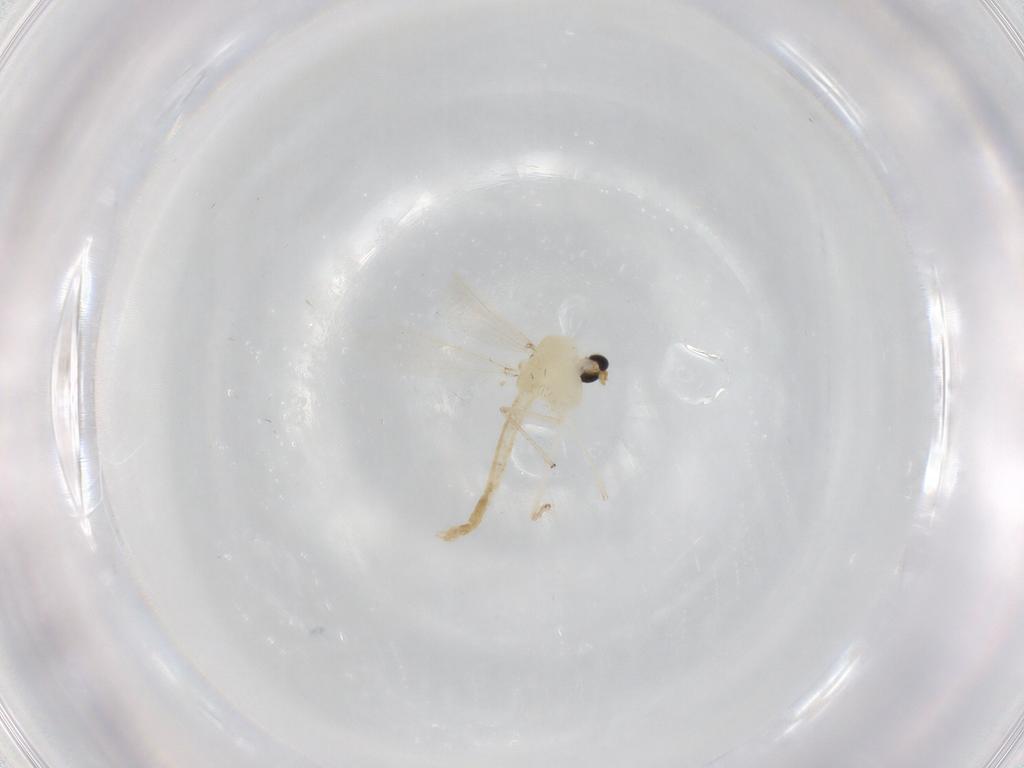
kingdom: Animalia
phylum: Arthropoda
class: Insecta
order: Diptera
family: Chironomidae
